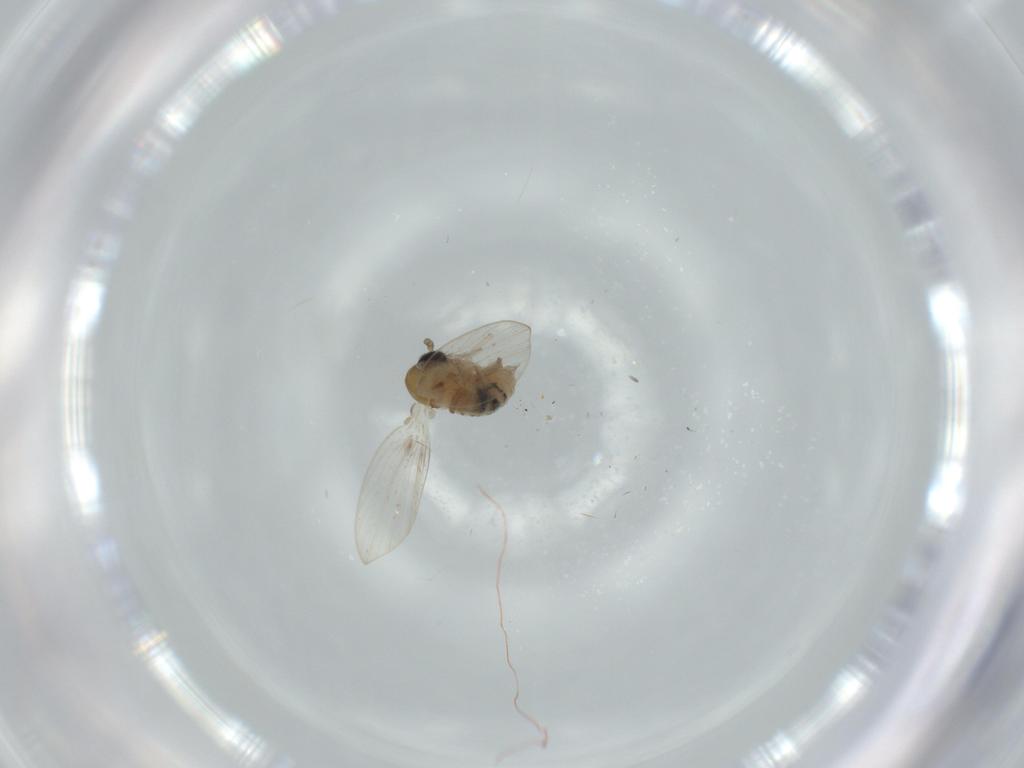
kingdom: Animalia
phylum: Arthropoda
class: Insecta
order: Diptera
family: Psychodidae
